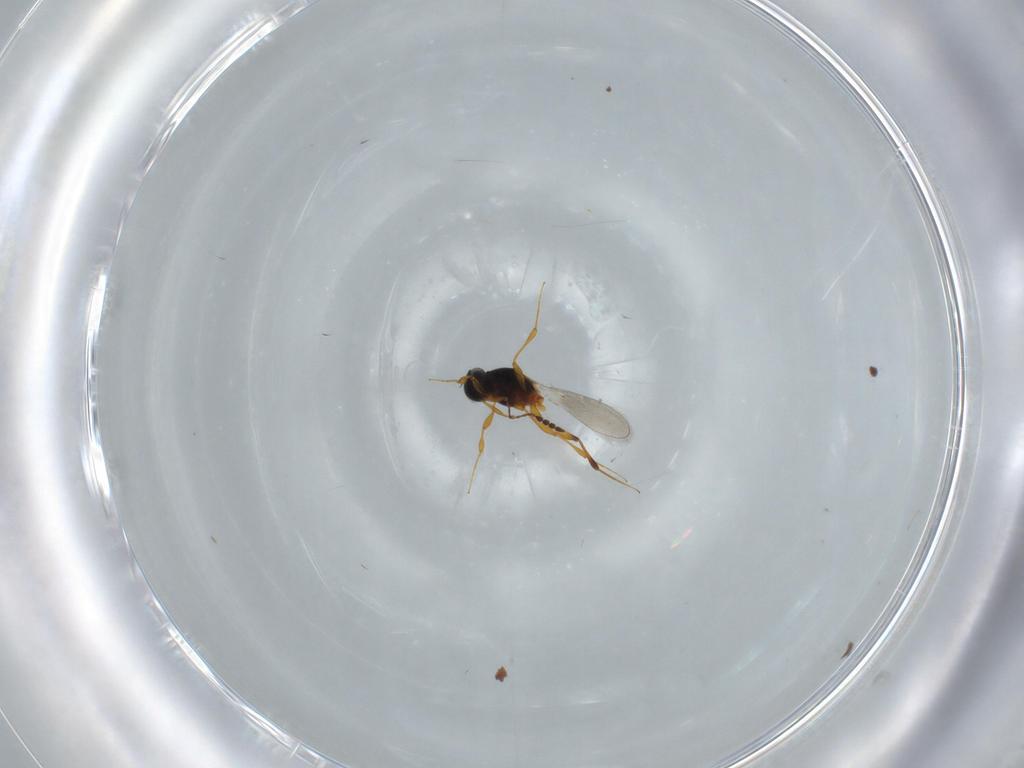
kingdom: Animalia
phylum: Arthropoda
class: Insecta
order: Hymenoptera
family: Platygastridae
